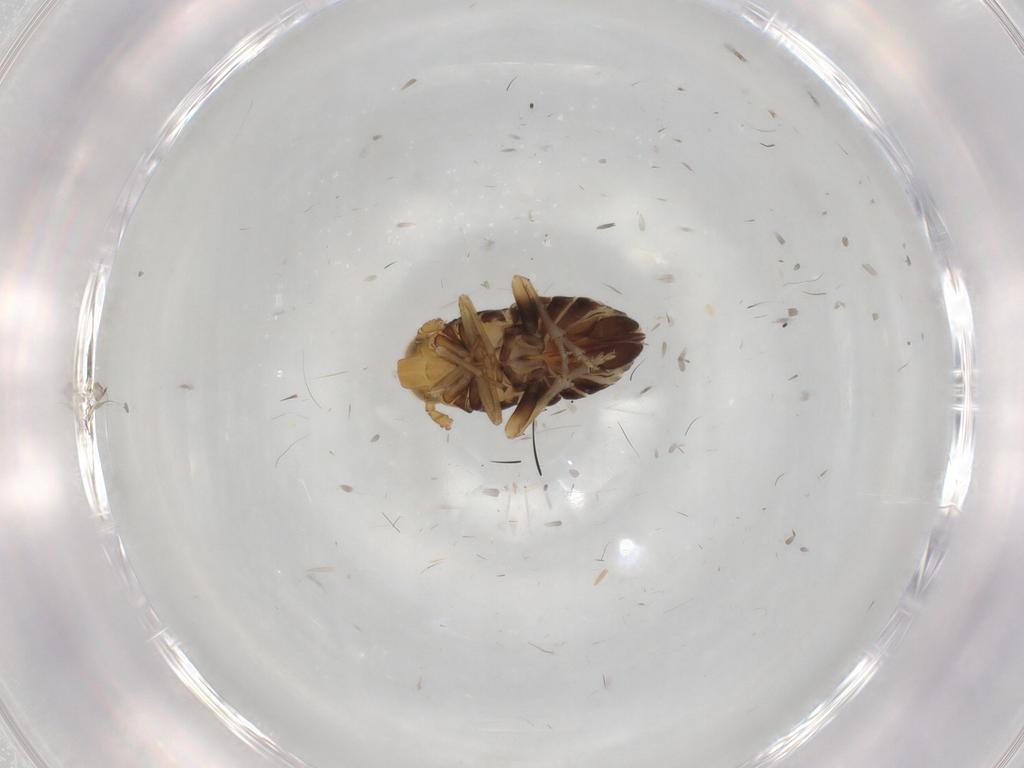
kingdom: Animalia
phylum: Arthropoda
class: Insecta
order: Hemiptera
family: Delphacidae
